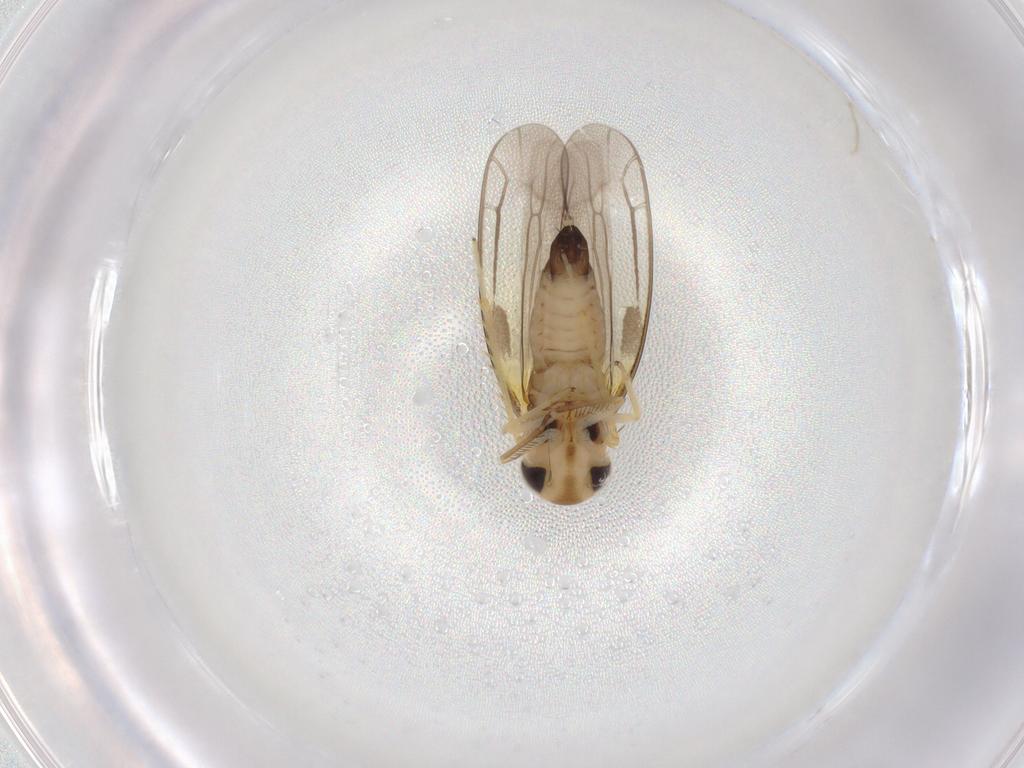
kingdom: Animalia
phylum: Arthropoda
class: Insecta
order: Hemiptera
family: Cicadellidae
